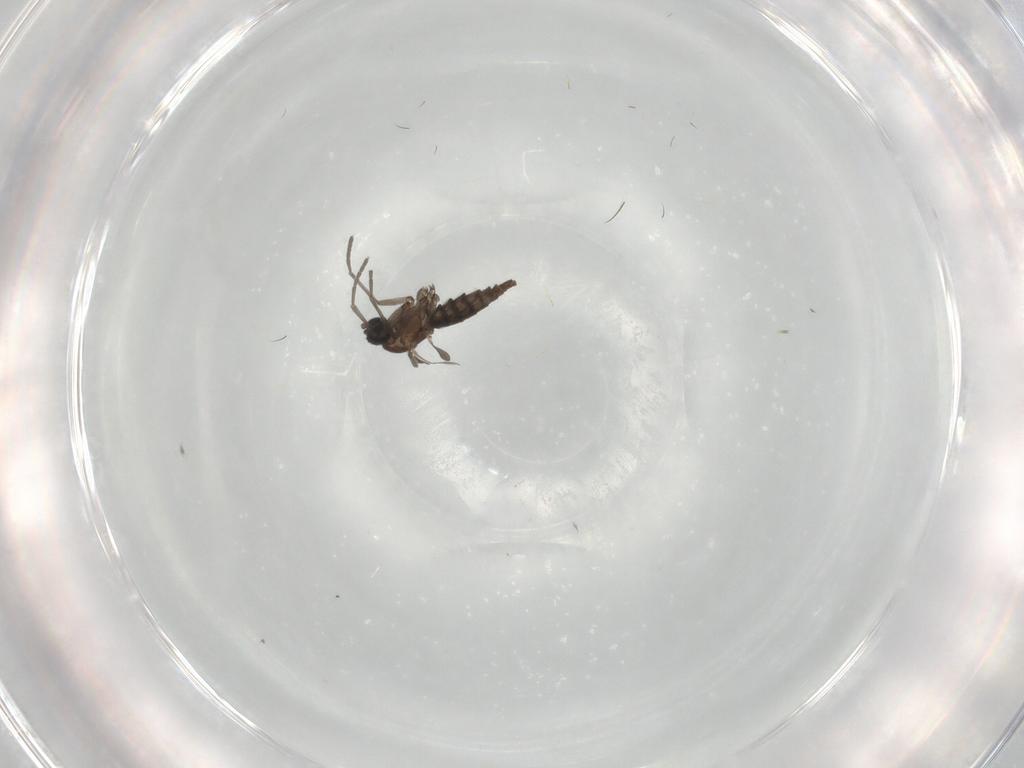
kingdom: Animalia
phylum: Arthropoda
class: Insecta
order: Diptera
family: Sciaridae
